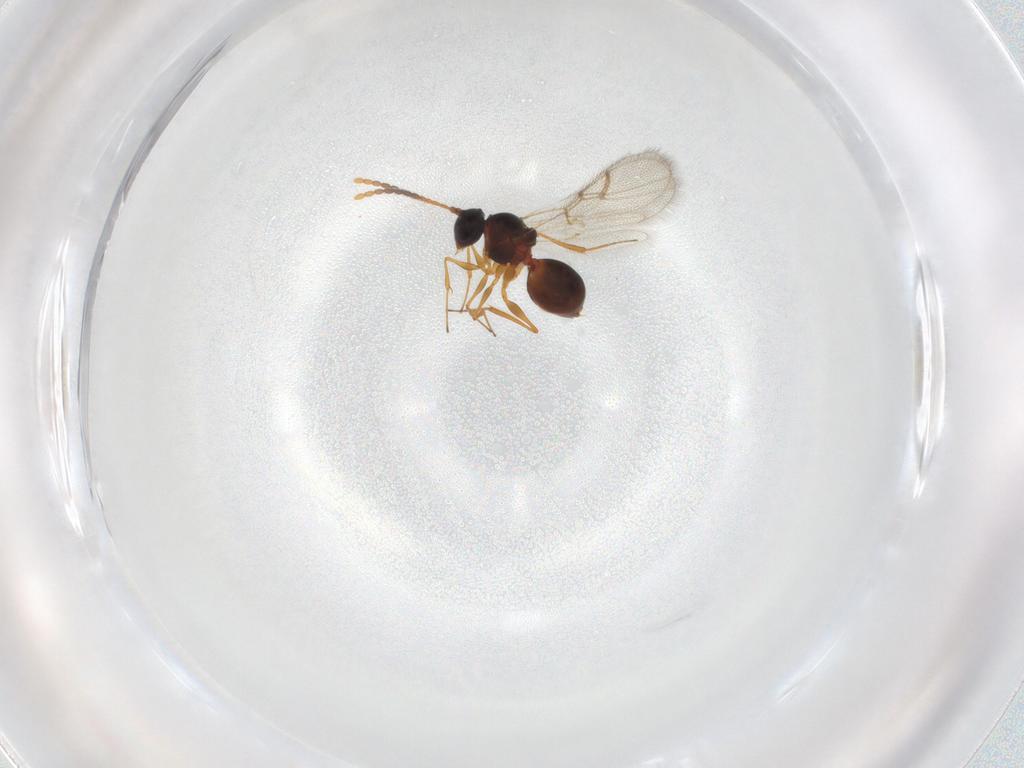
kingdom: Animalia
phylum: Arthropoda
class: Insecta
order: Hymenoptera
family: Figitidae
